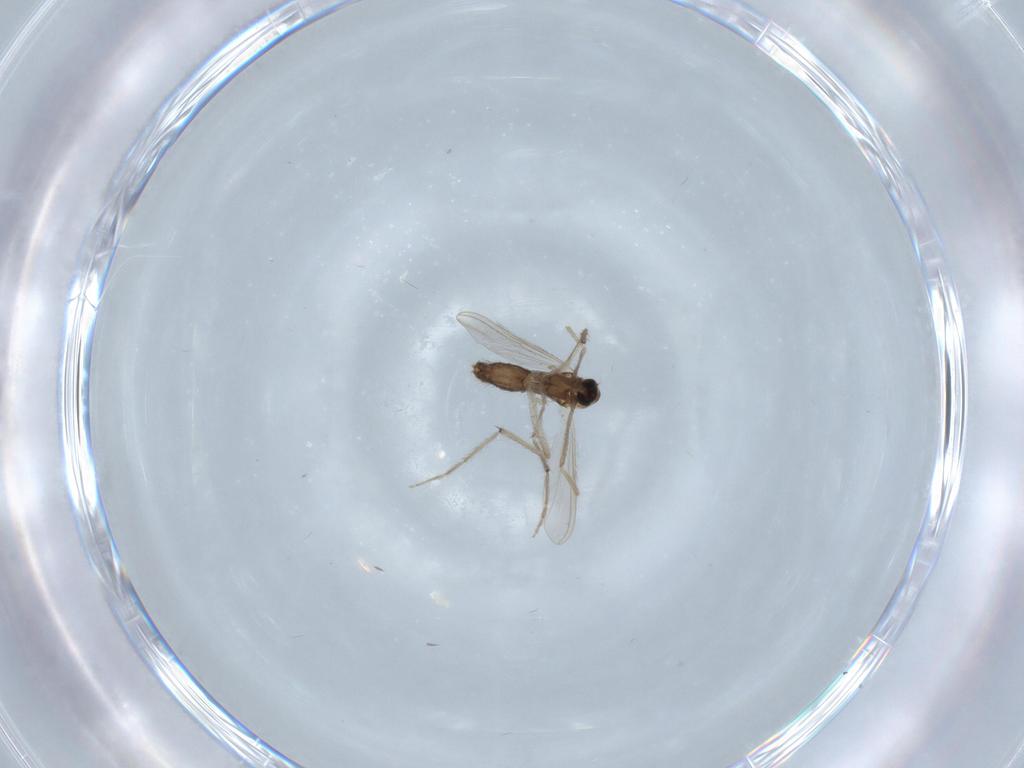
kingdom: Animalia
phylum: Arthropoda
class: Insecta
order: Diptera
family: Chironomidae
